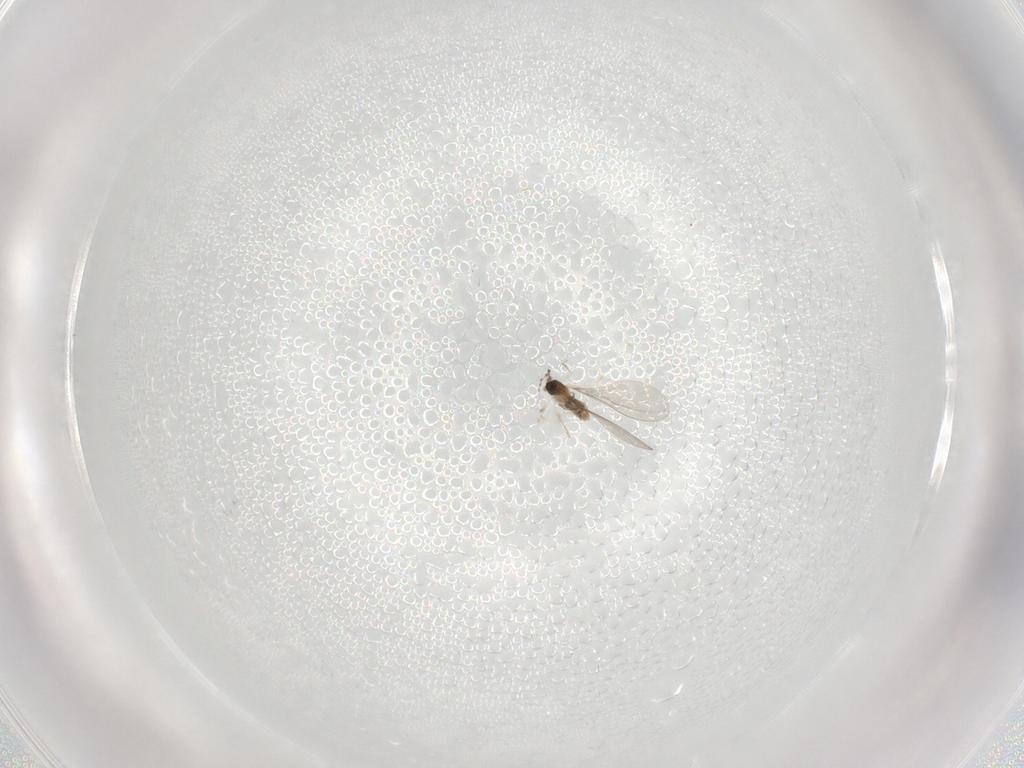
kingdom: Animalia
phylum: Arthropoda
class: Insecta
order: Diptera
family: Cecidomyiidae
